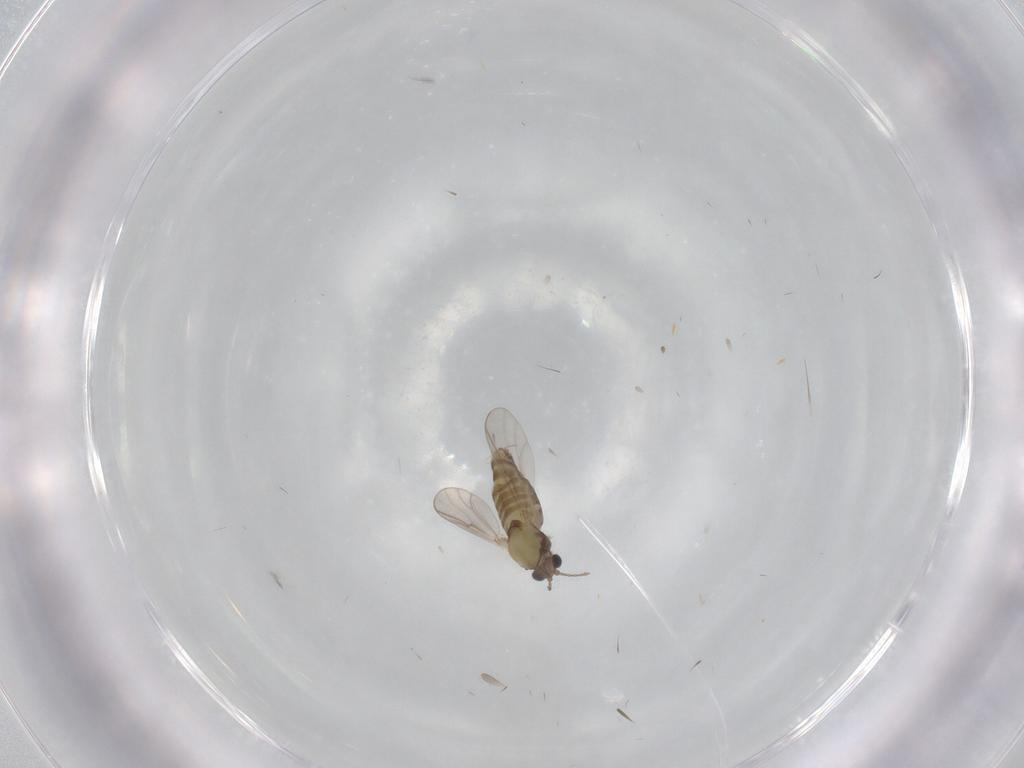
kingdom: Animalia
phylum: Arthropoda
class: Insecta
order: Diptera
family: Chironomidae
